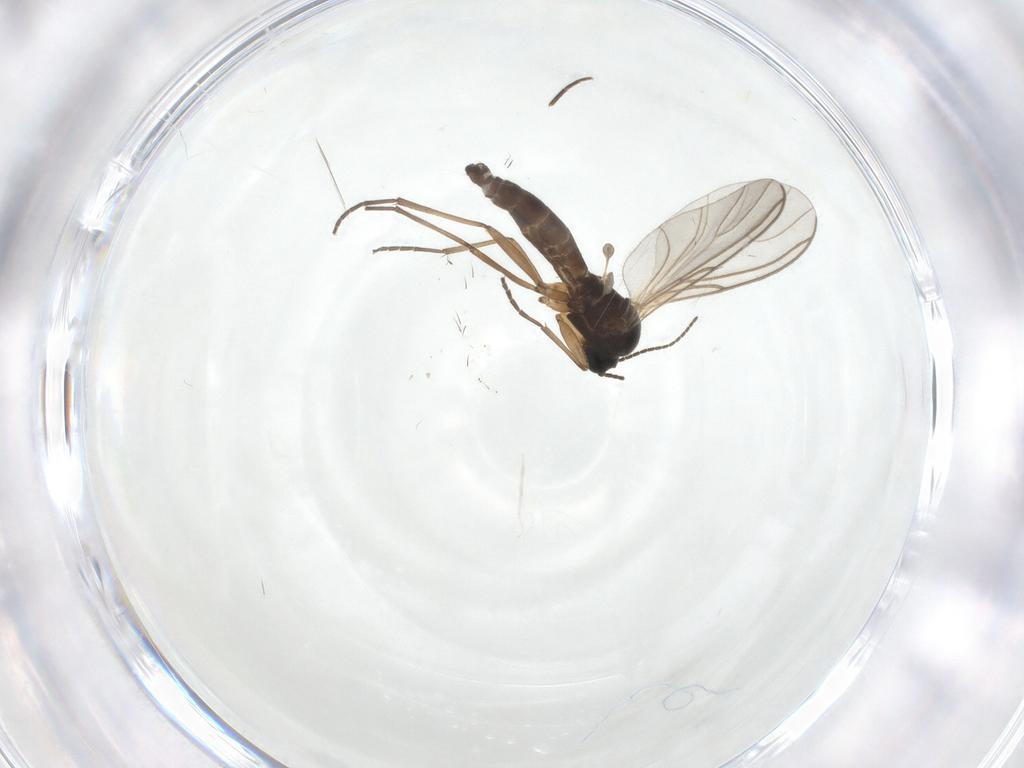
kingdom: Animalia
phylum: Arthropoda
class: Insecta
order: Diptera
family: Sciaridae
